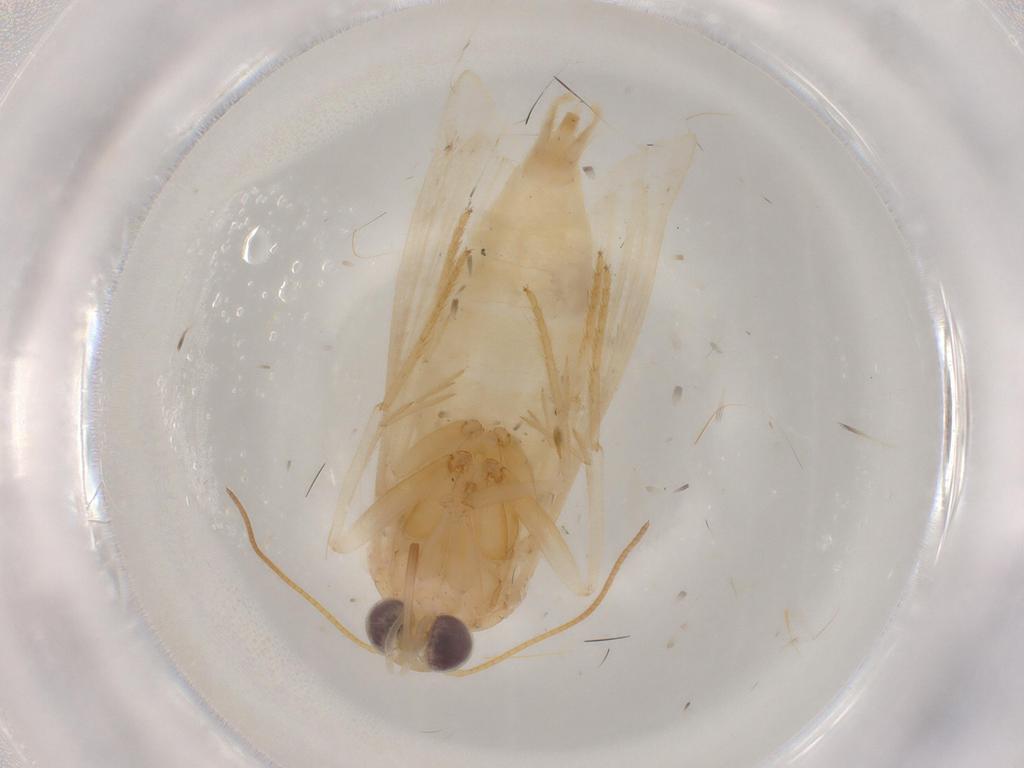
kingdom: Animalia
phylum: Arthropoda
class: Insecta
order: Lepidoptera
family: Noctuidae
